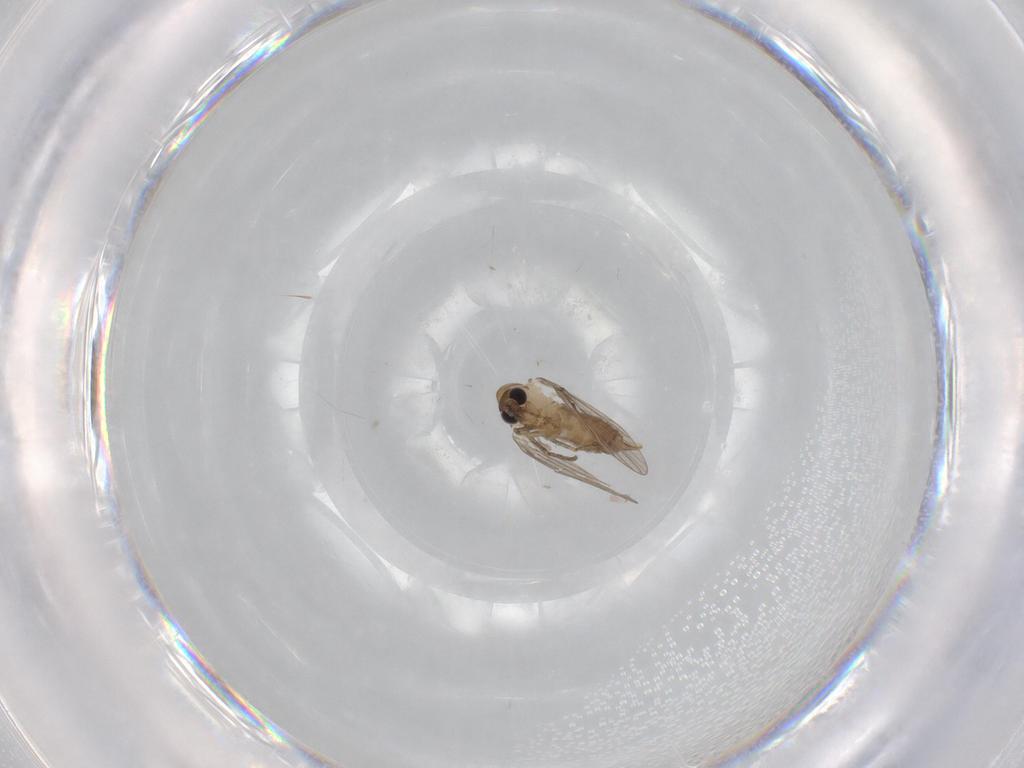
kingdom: Animalia
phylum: Arthropoda
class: Insecta
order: Diptera
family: Psychodidae
